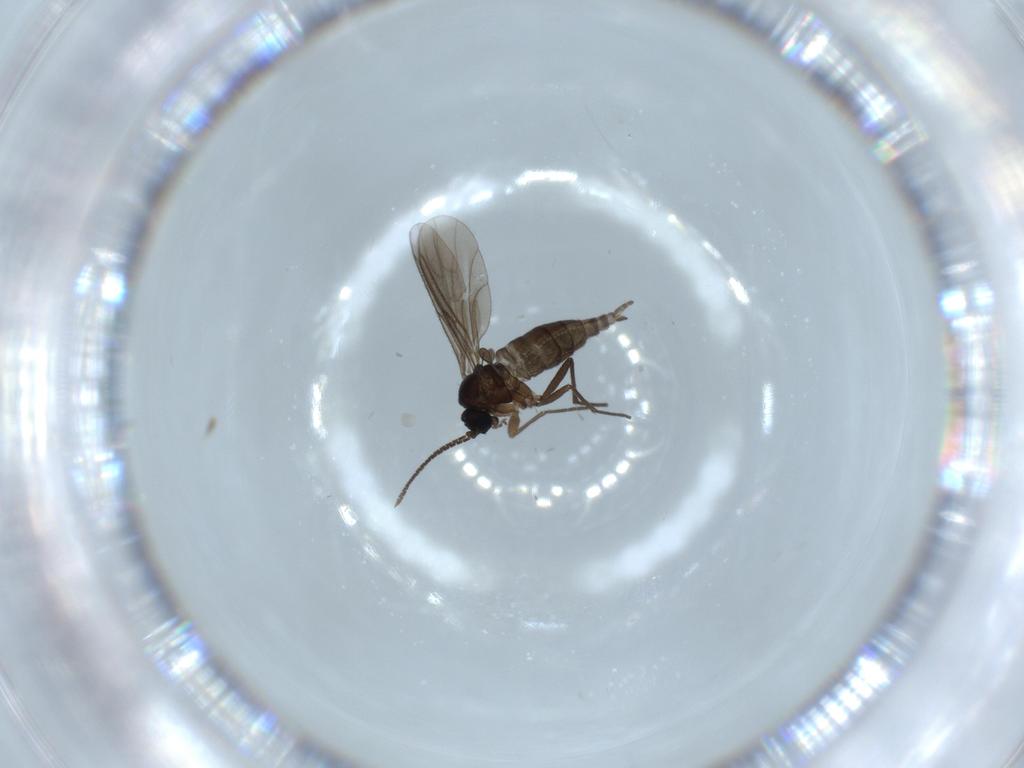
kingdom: Animalia
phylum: Arthropoda
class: Insecta
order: Diptera
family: Sciaridae
